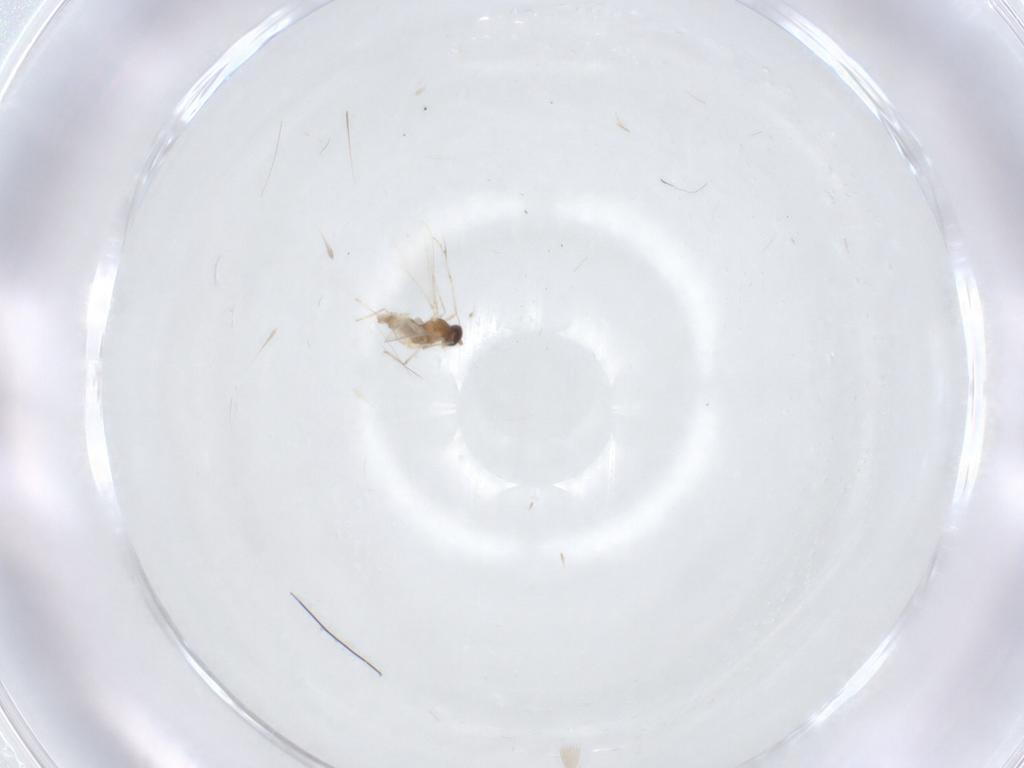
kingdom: Animalia
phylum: Arthropoda
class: Insecta
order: Diptera
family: Cecidomyiidae
